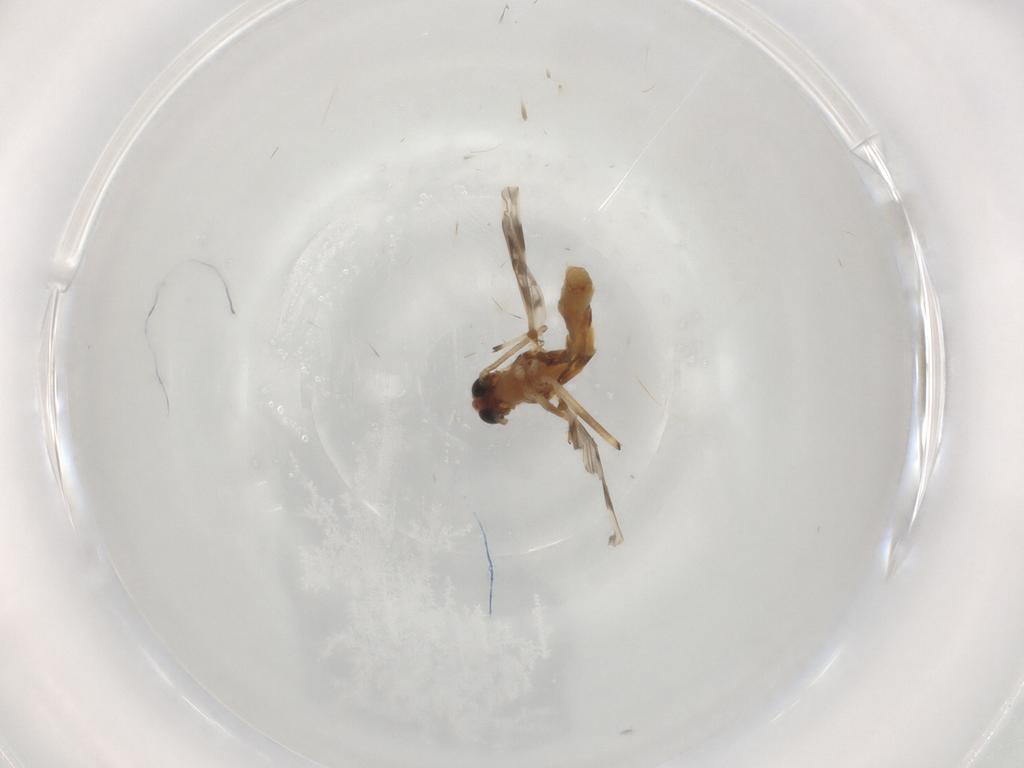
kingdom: Animalia
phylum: Arthropoda
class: Insecta
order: Diptera
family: Chironomidae
